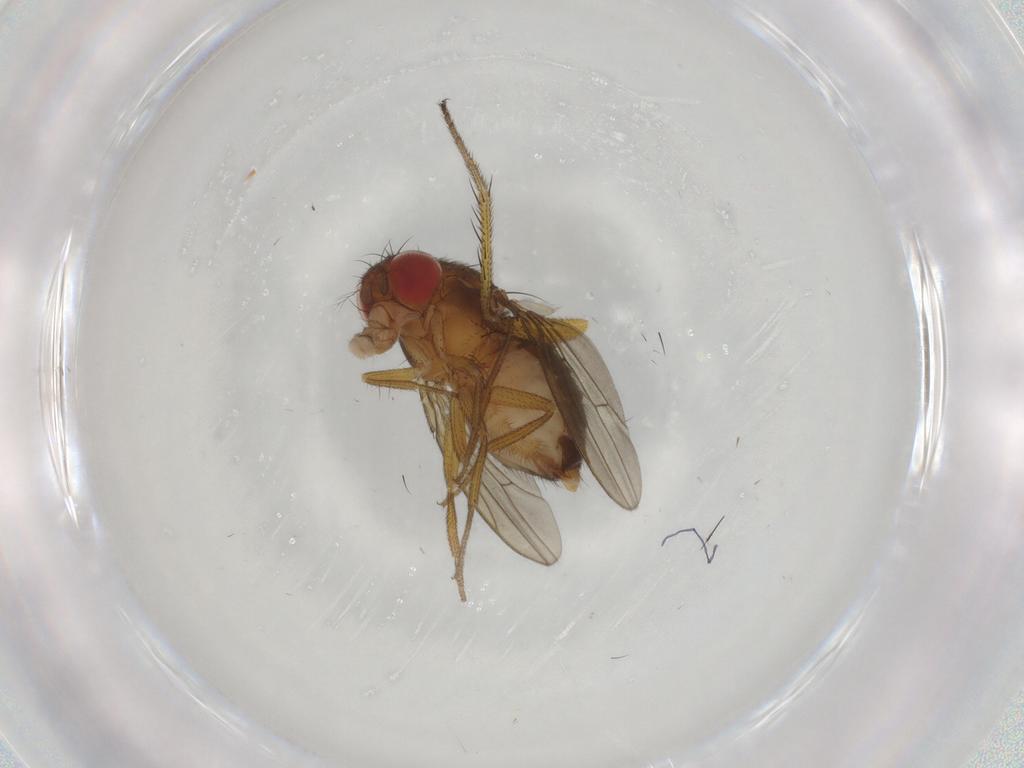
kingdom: Animalia
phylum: Arthropoda
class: Insecta
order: Diptera
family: Drosophilidae
